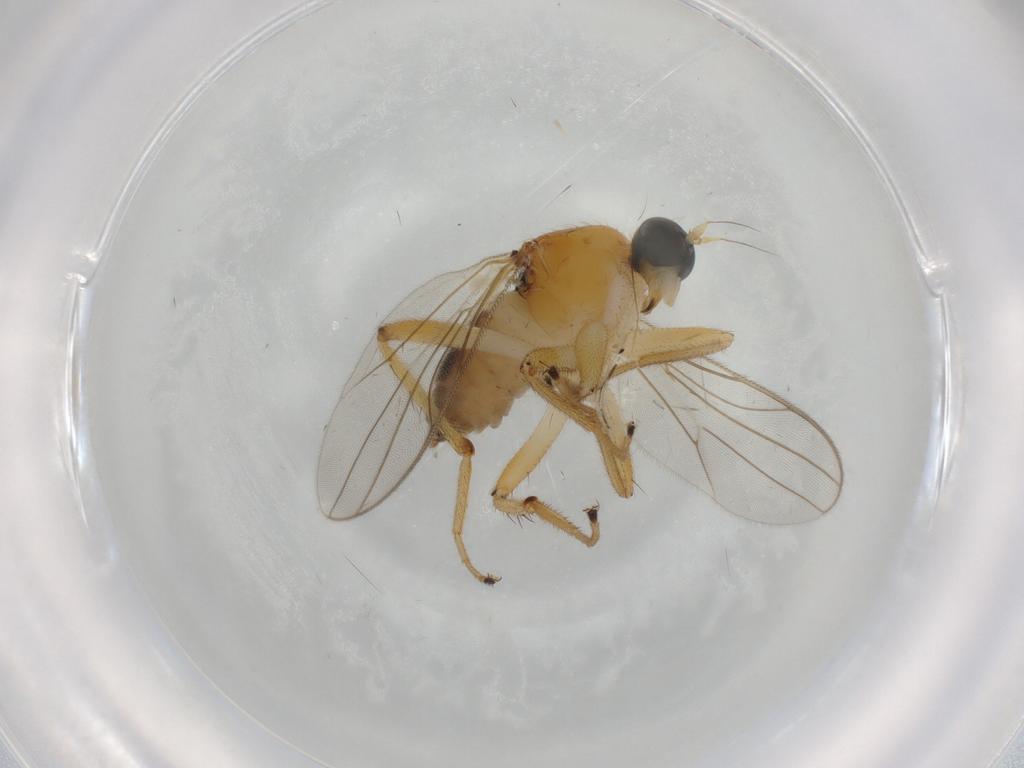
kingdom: Animalia
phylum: Arthropoda
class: Insecta
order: Diptera
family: Hybotidae
